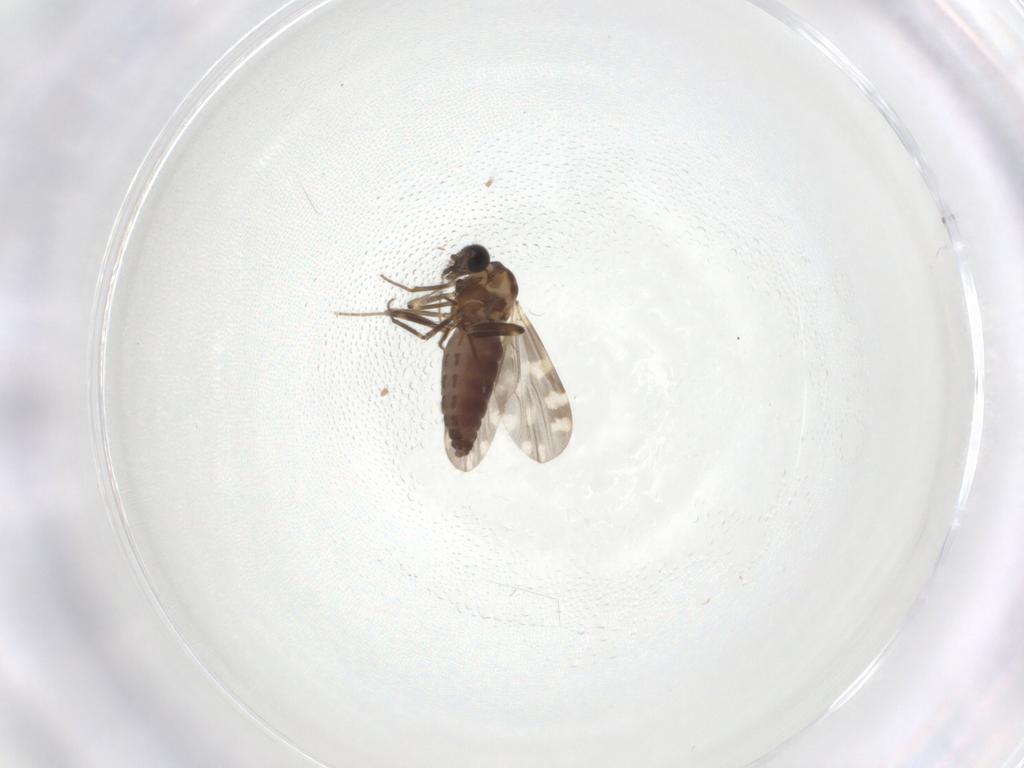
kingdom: Animalia
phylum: Arthropoda
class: Insecta
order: Diptera
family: Ceratopogonidae
